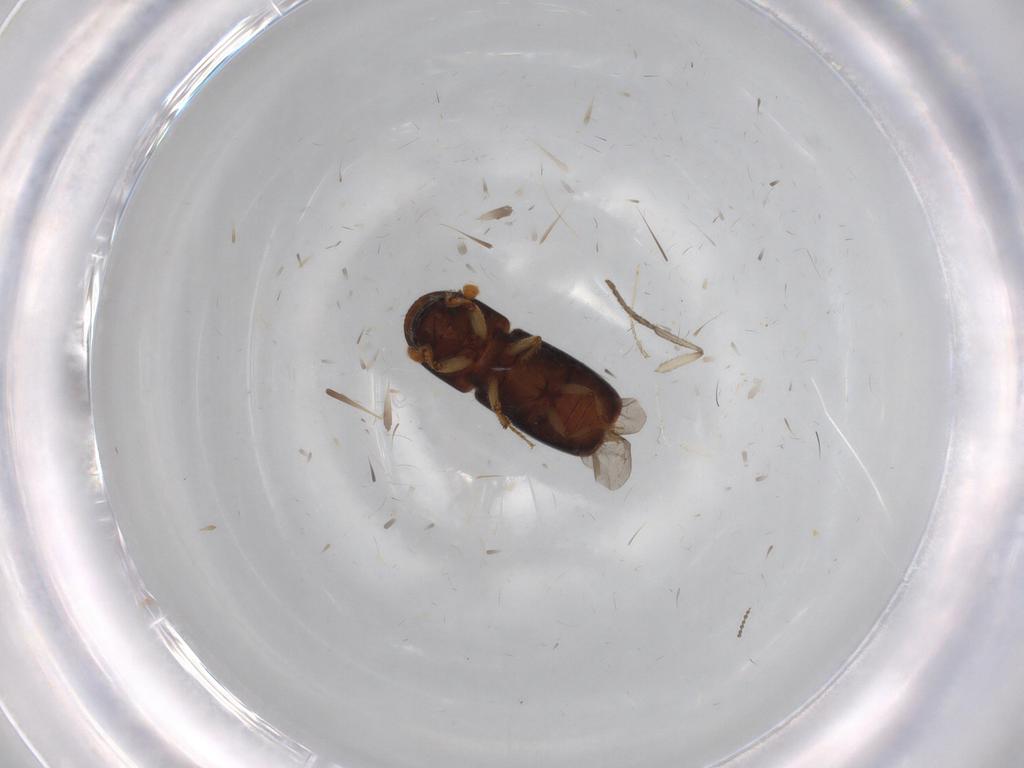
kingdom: Animalia
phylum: Arthropoda
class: Insecta
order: Coleoptera
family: Curculionidae
